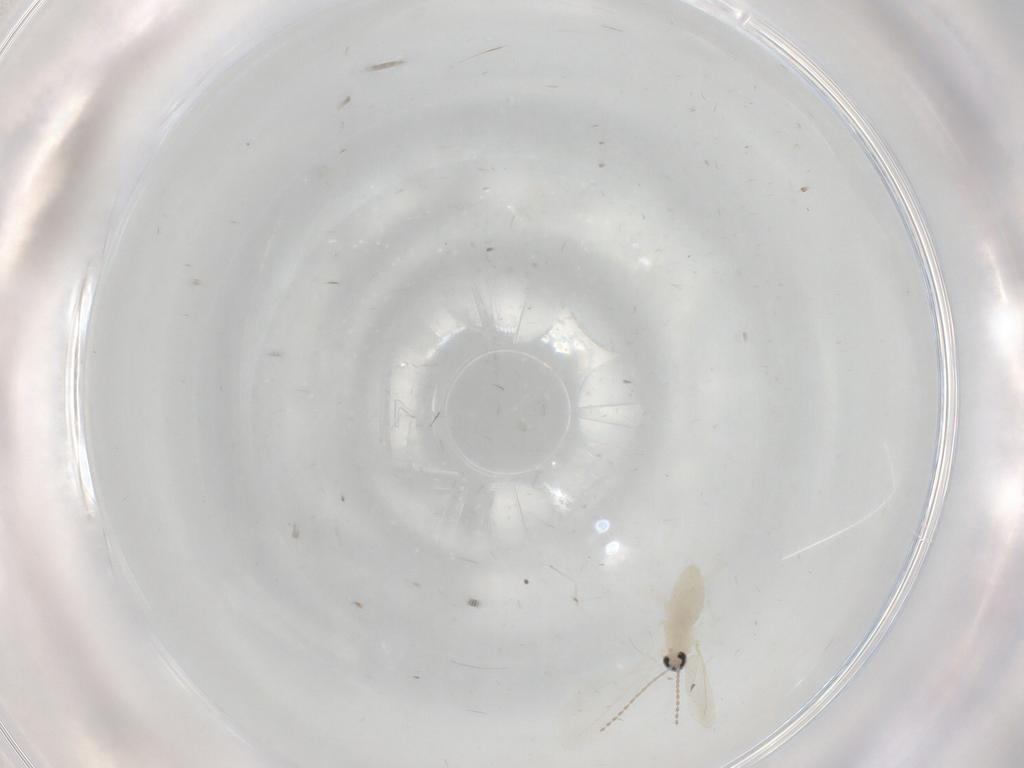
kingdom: Animalia
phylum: Arthropoda
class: Insecta
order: Diptera
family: Cecidomyiidae
